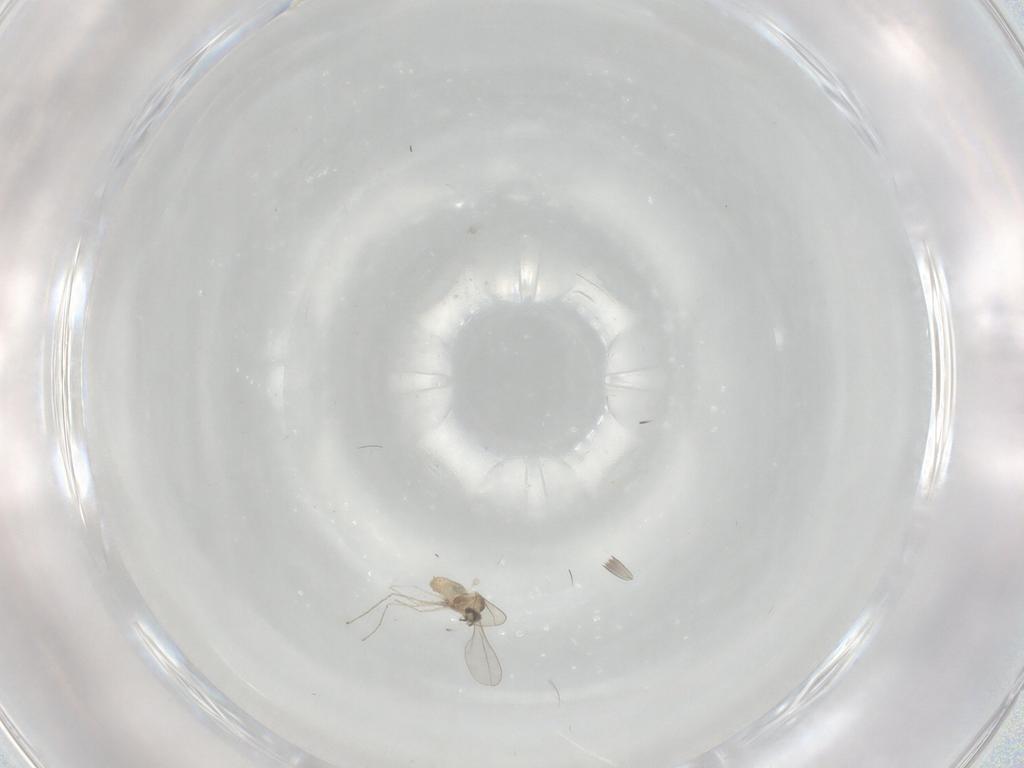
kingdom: Animalia
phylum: Arthropoda
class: Insecta
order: Diptera
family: Cecidomyiidae
